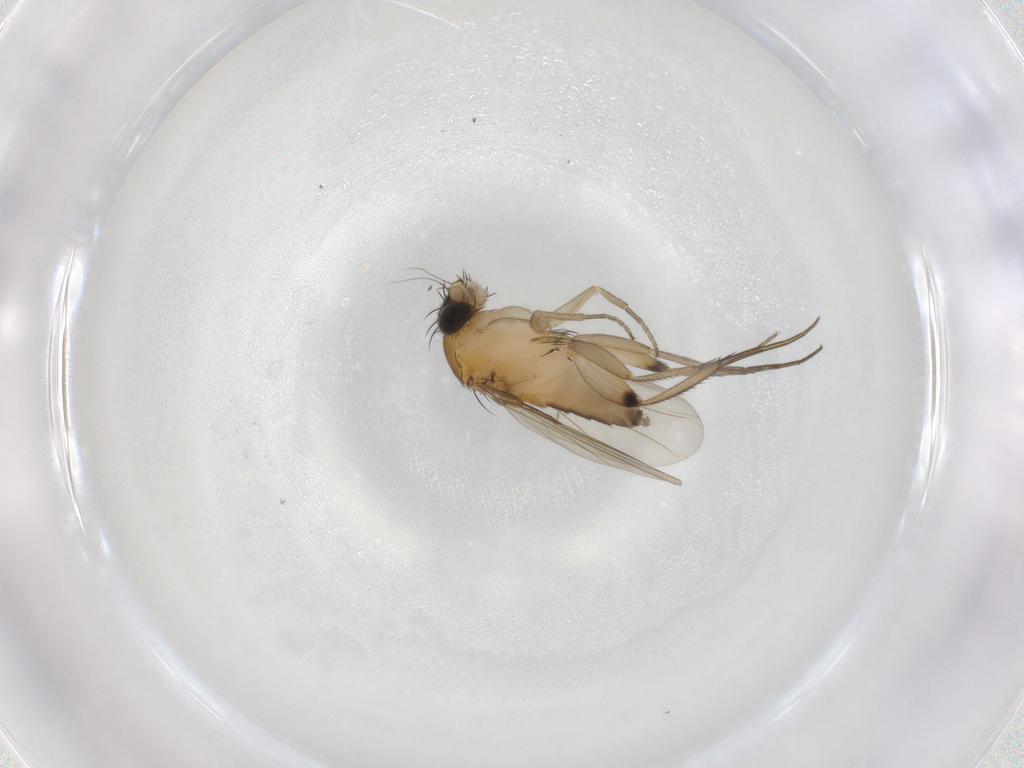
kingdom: Animalia
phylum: Arthropoda
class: Insecta
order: Diptera
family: Phoridae
